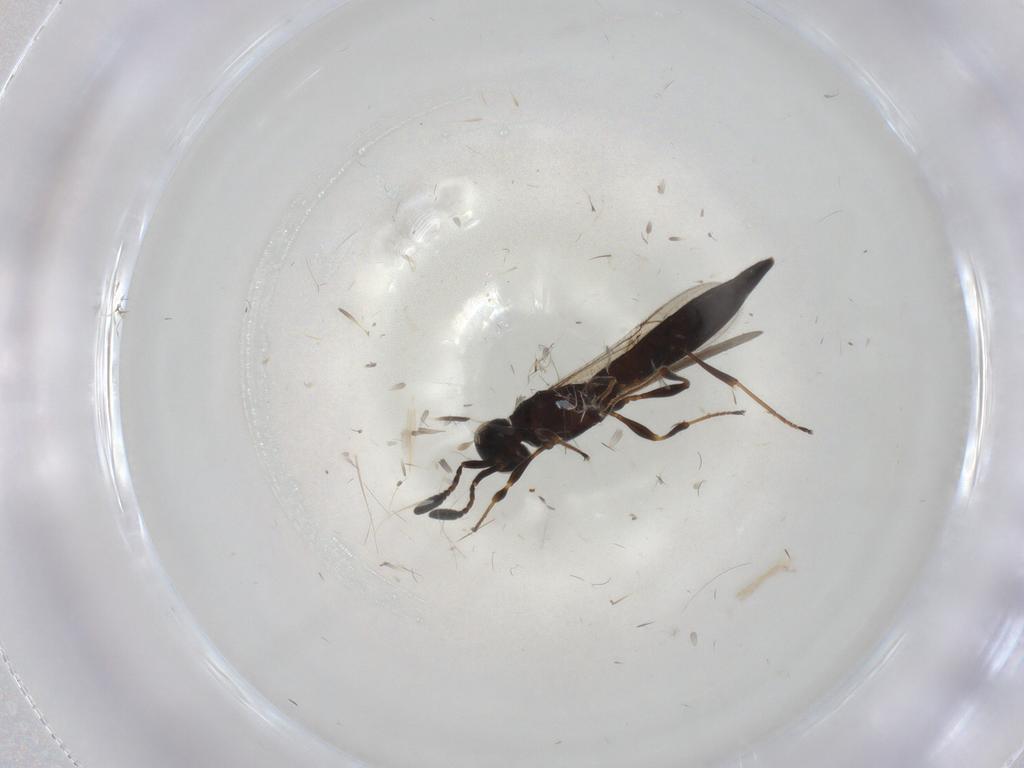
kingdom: Animalia
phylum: Arthropoda
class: Insecta
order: Hymenoptera
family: Scelionidae
